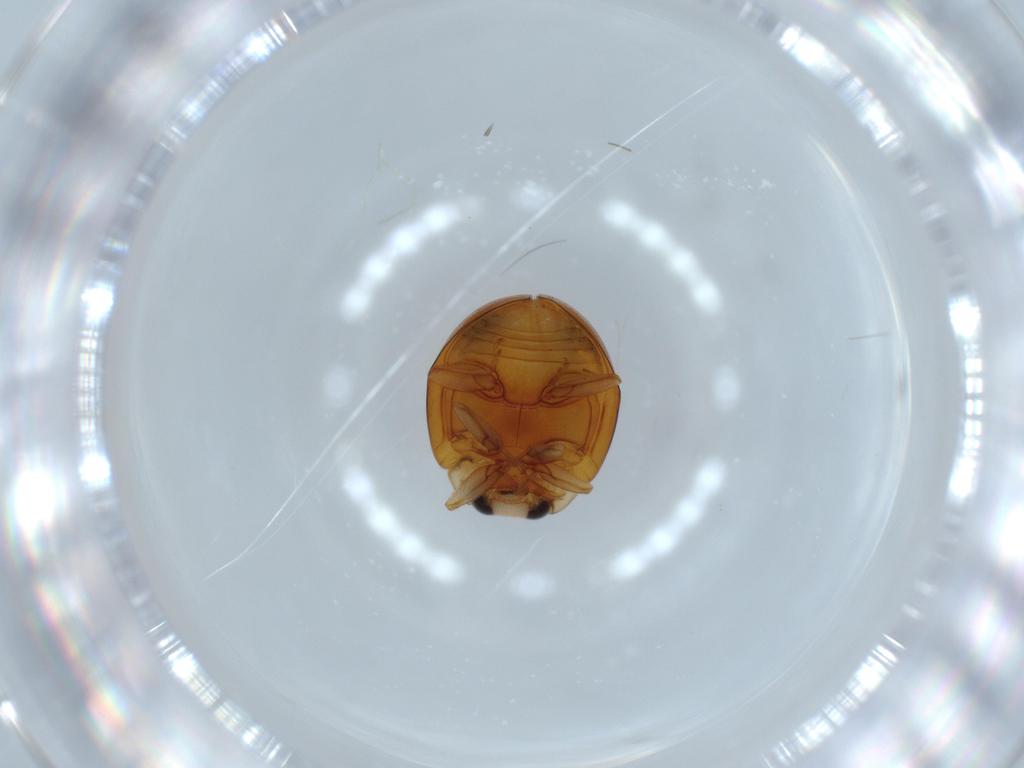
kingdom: Animalia
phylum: Arthropoda
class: Insecta
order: Coleoptera
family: Coccinellidae
